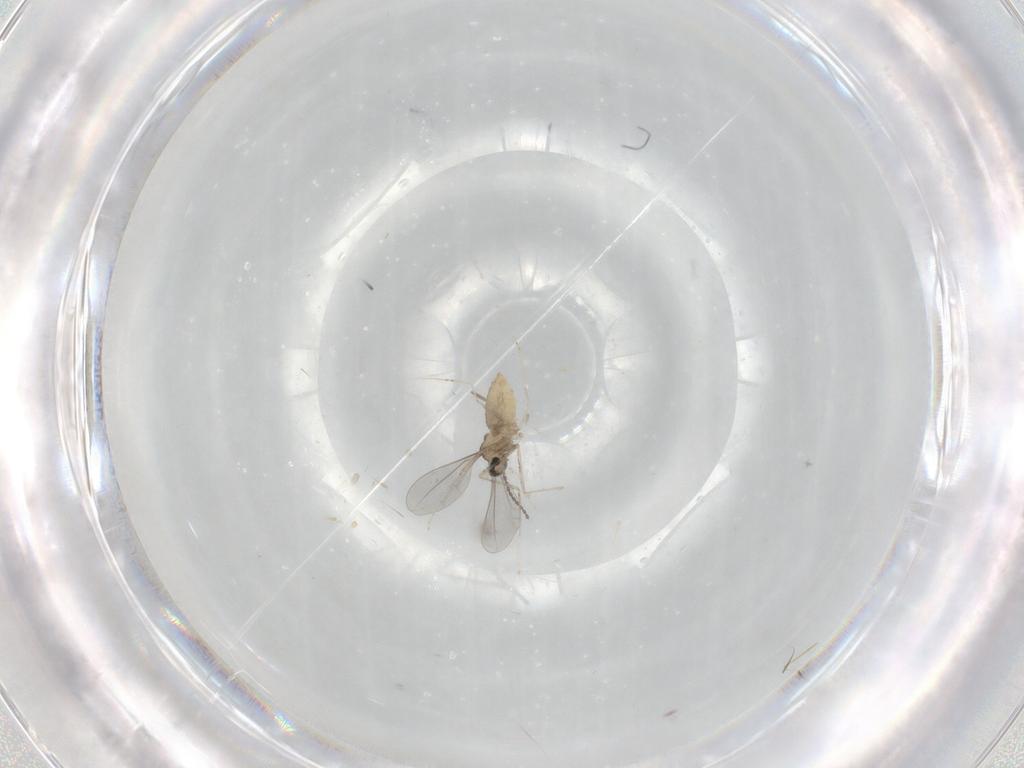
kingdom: Animalia
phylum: Arthropoda
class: Insecta
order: Diptera
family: Cecidomyiidae
